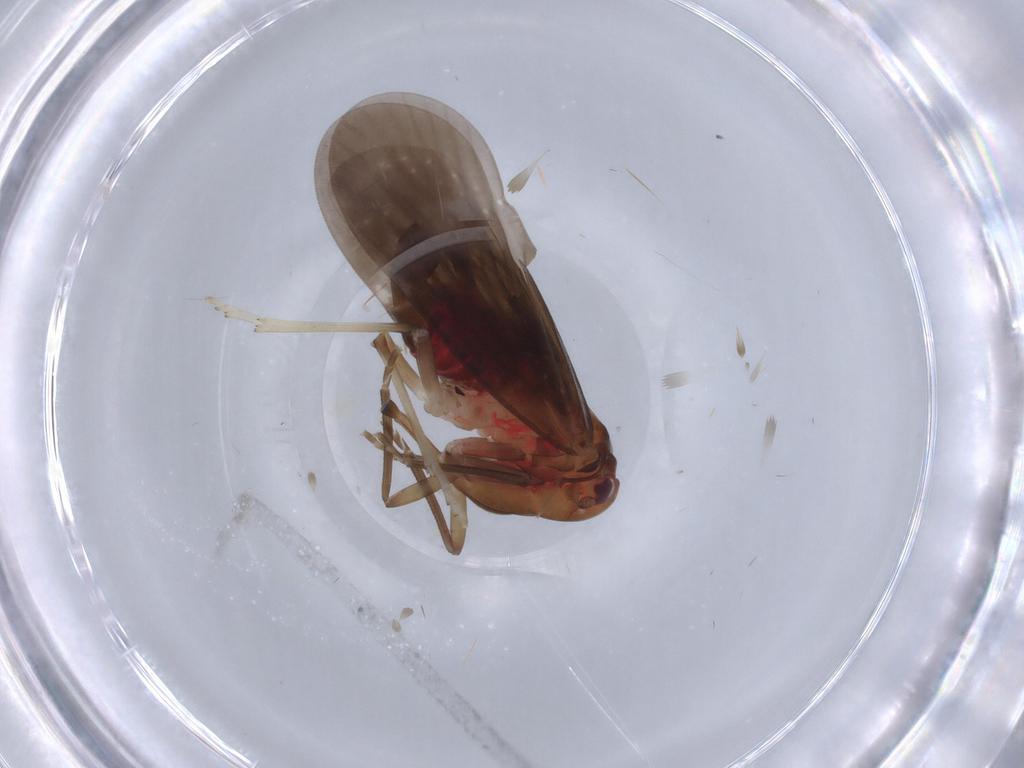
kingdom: Animalia
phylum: Arthropoda
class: Insecta
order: Hemiptera
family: Derbidae
